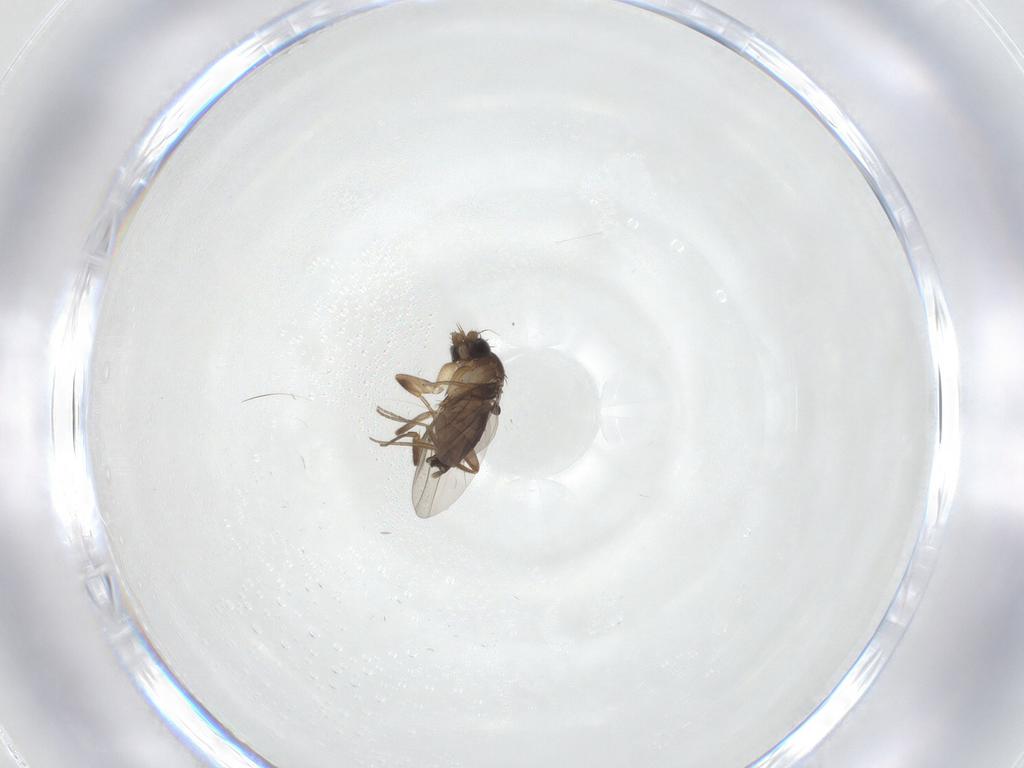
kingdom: Animalia
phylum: Arthropoda
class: Insecta
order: Diptera
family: Phoridae
